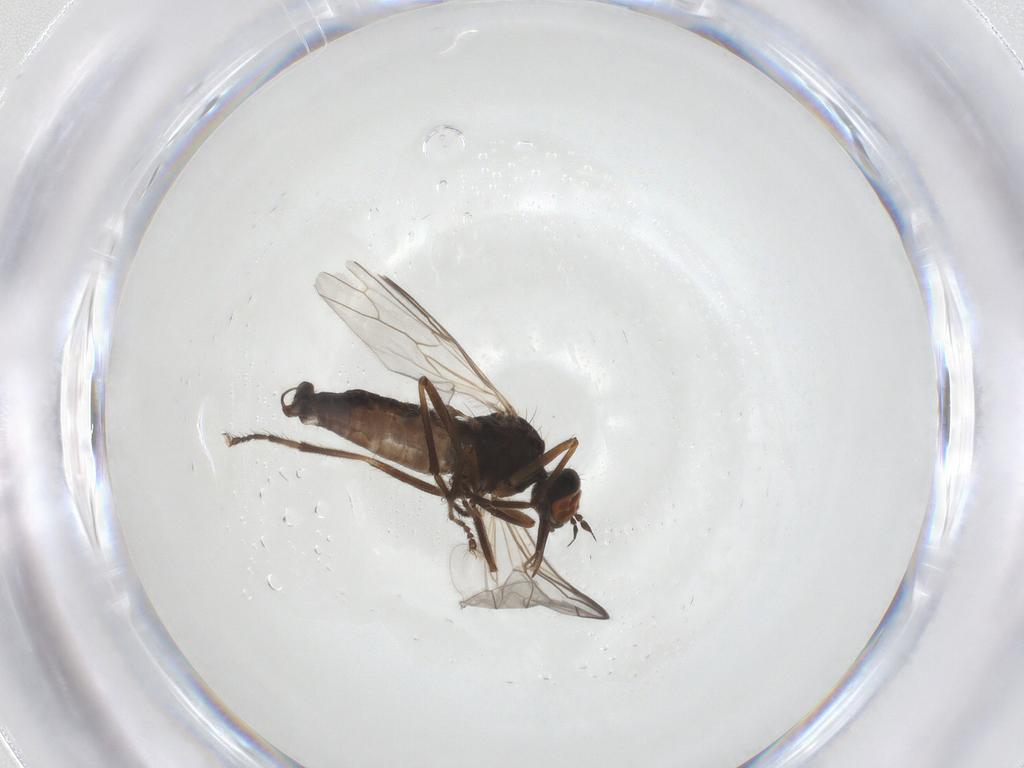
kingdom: Animalia
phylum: Arthropoda
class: Insecta
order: Diptera
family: Empididae
